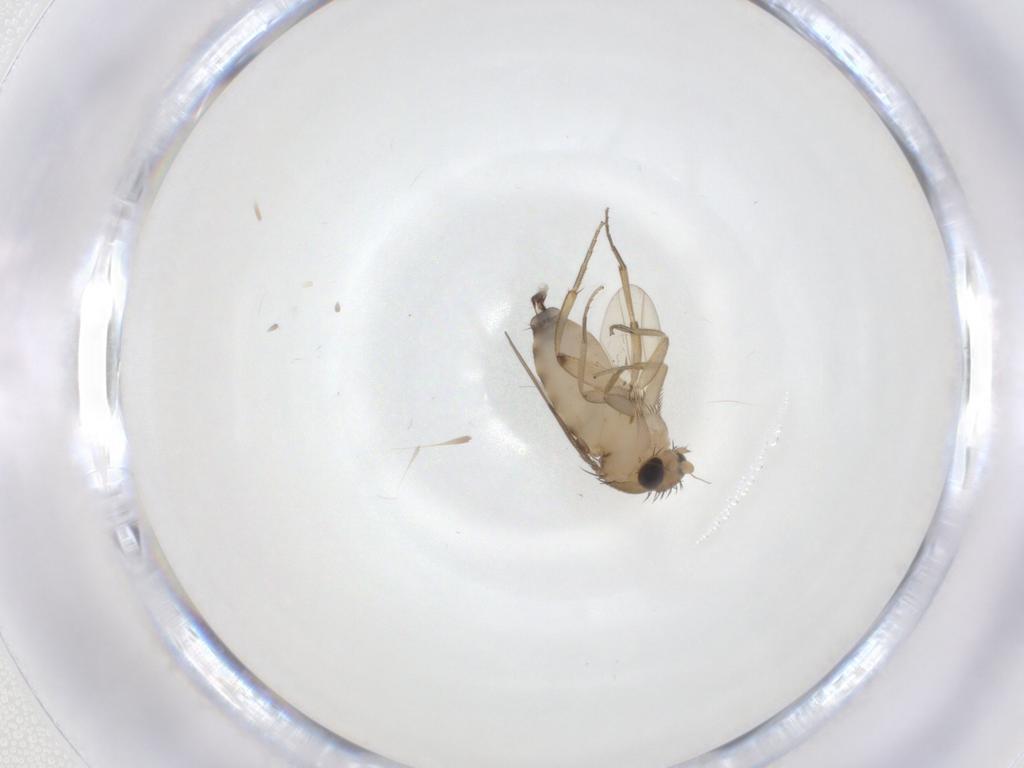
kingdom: Animalia
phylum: Arthropoda
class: Insecta
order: Diptera
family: Phoridae
